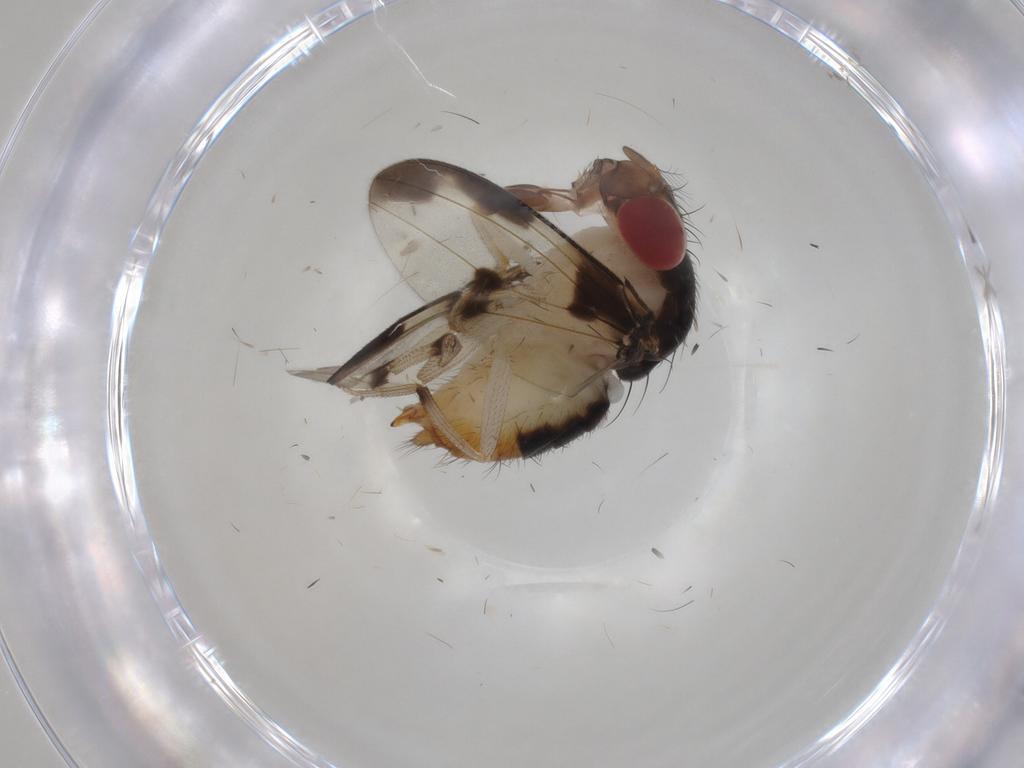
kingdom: Animalia
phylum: Arthropoda
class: Insecta
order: Diptera
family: Drosophilidae
